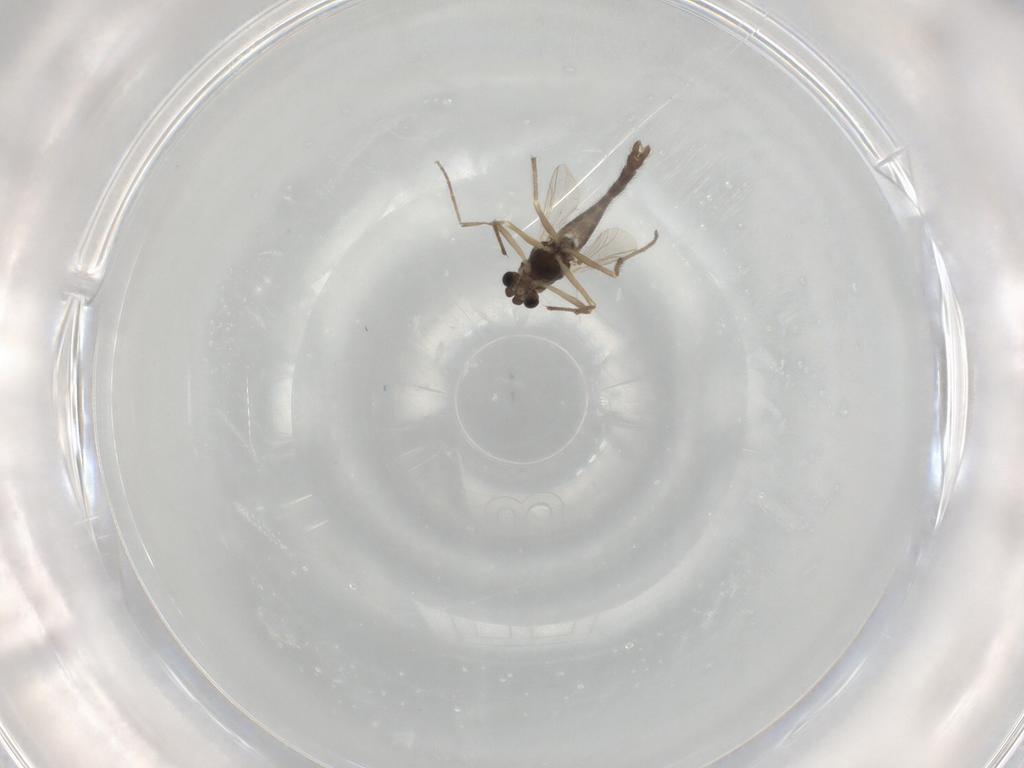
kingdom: Animalia
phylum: Arthropoda
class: Insecta
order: Diptera
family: Chironomidae
